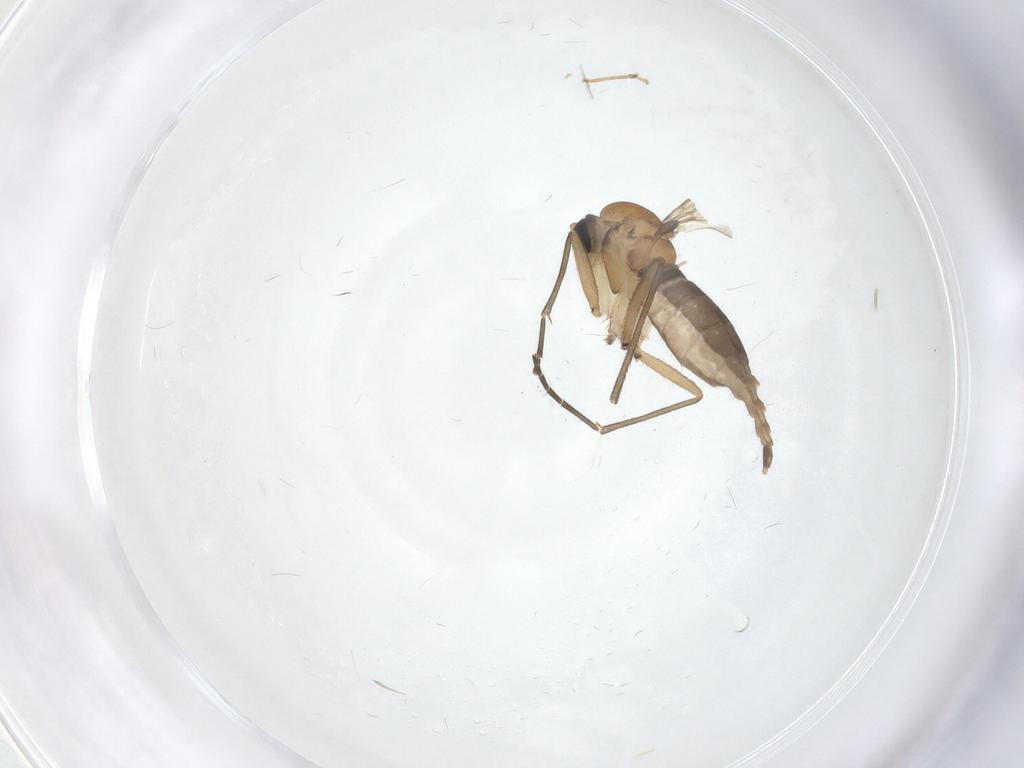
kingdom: Animalia
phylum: Arthropoda
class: Insecta
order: Diptera
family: Sciaridae
